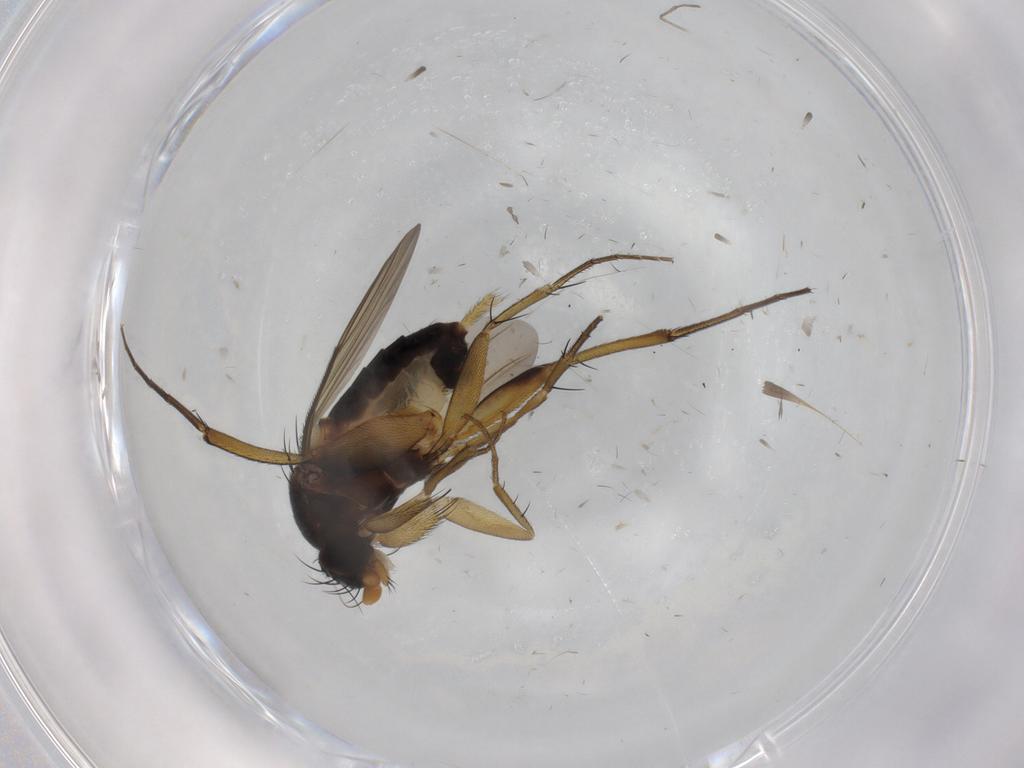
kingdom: Animalia
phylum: Arthropoda
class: Insecta
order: Diptera
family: Phoridae
